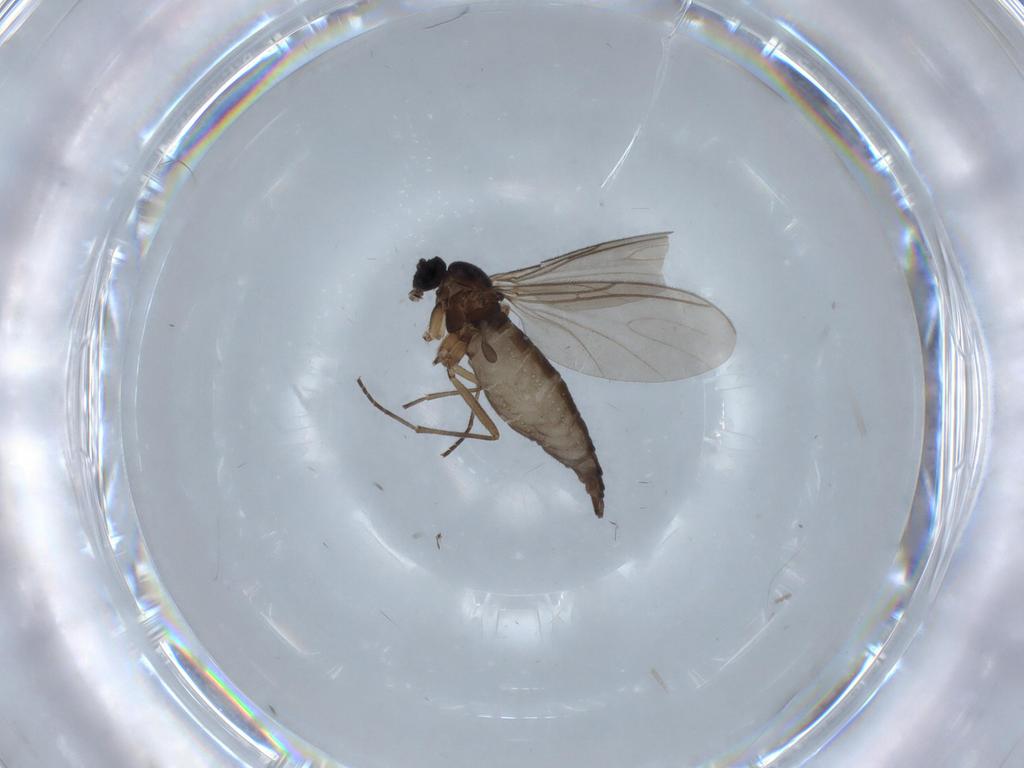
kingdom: Animalia
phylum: Arthropoda
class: Insecta
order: Diptera
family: Sciaridae
